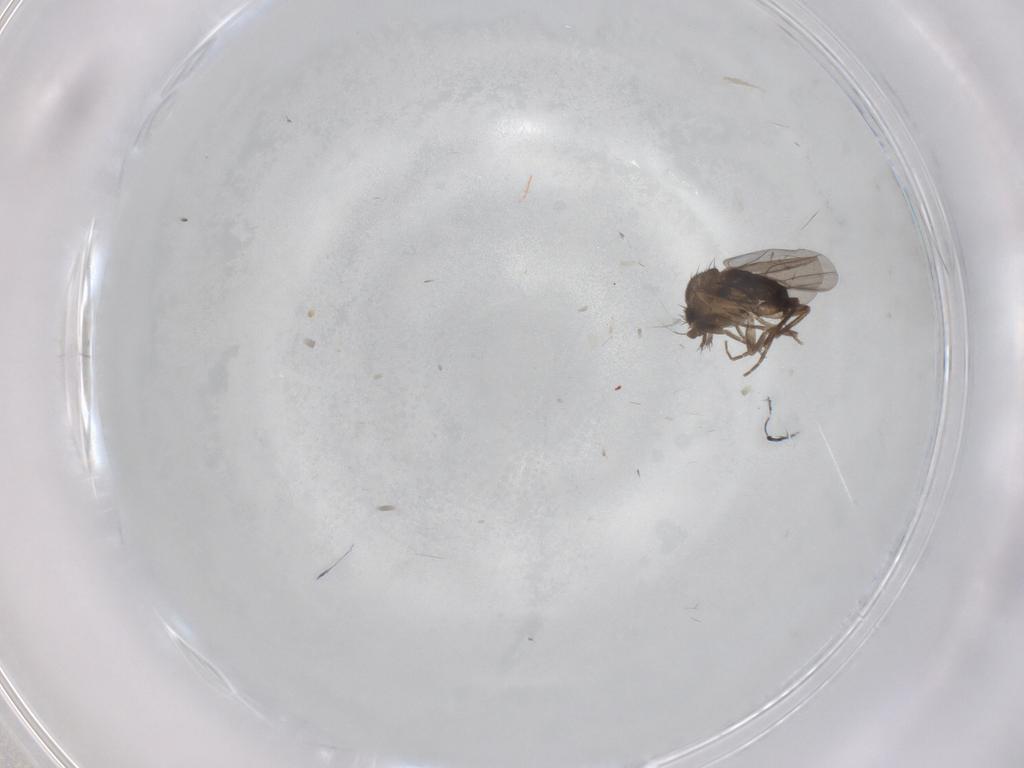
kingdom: Animalia
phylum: Arthropoda
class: Insecta
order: Diptera
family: Chironomidae
